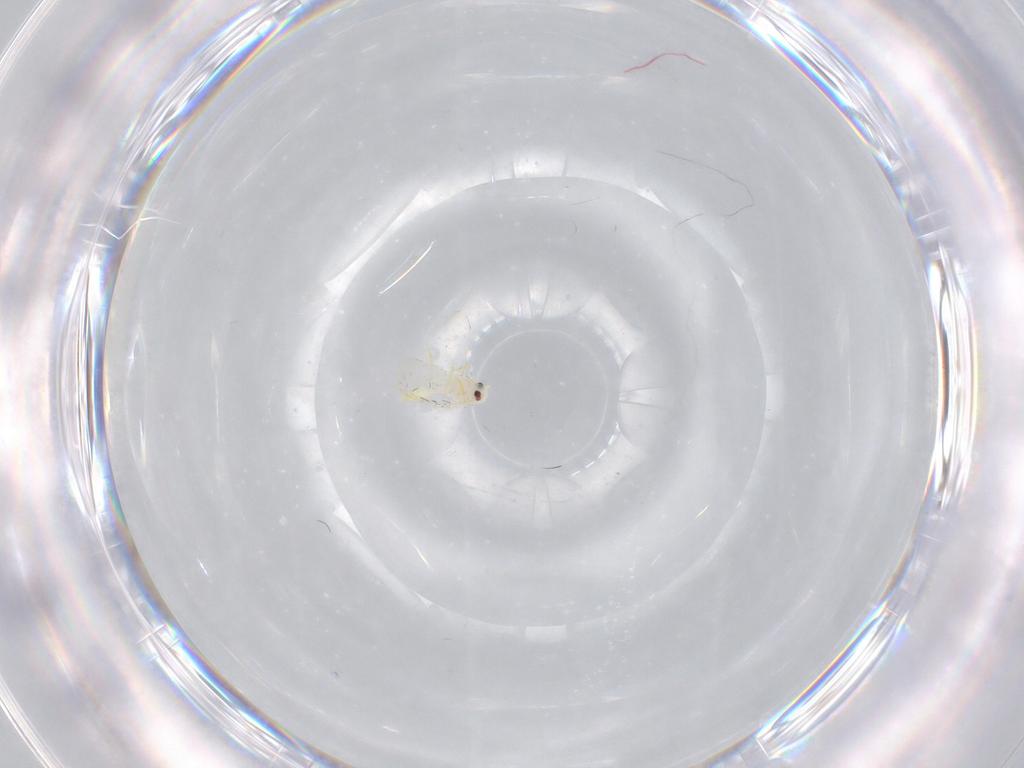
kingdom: Animalia
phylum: Arthropoda
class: Insecta
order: Hemiptera
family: Aleyrodidae
